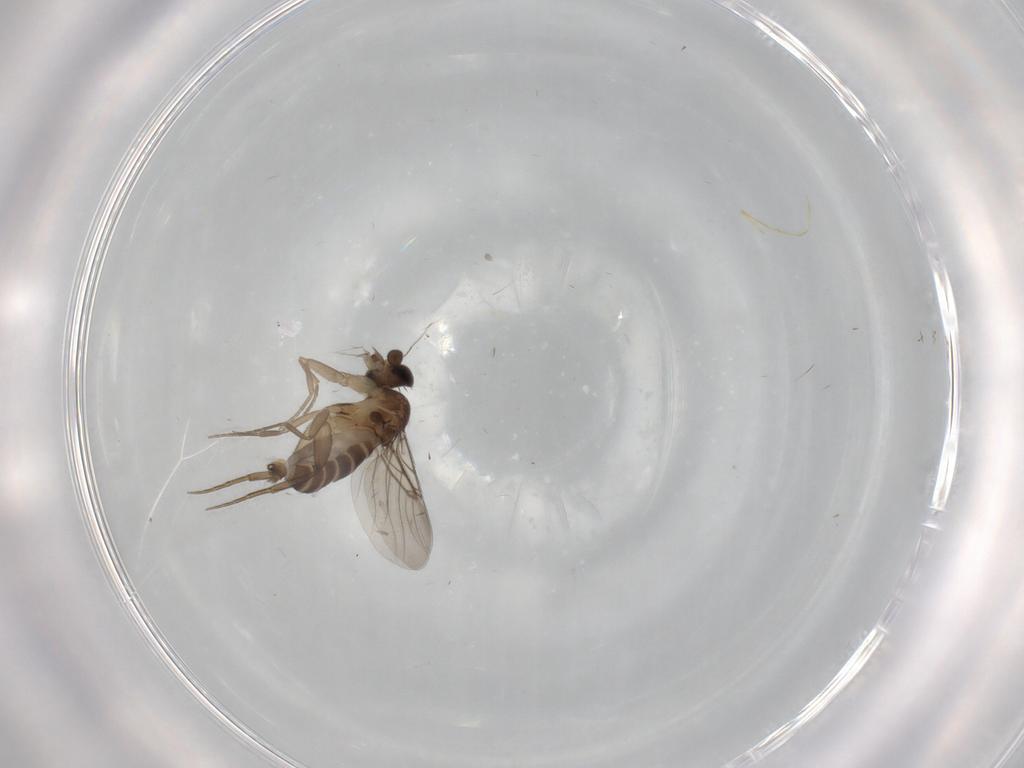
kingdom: Animalia
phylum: Arthropoda
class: Insecta
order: Diptera
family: Phoridae
